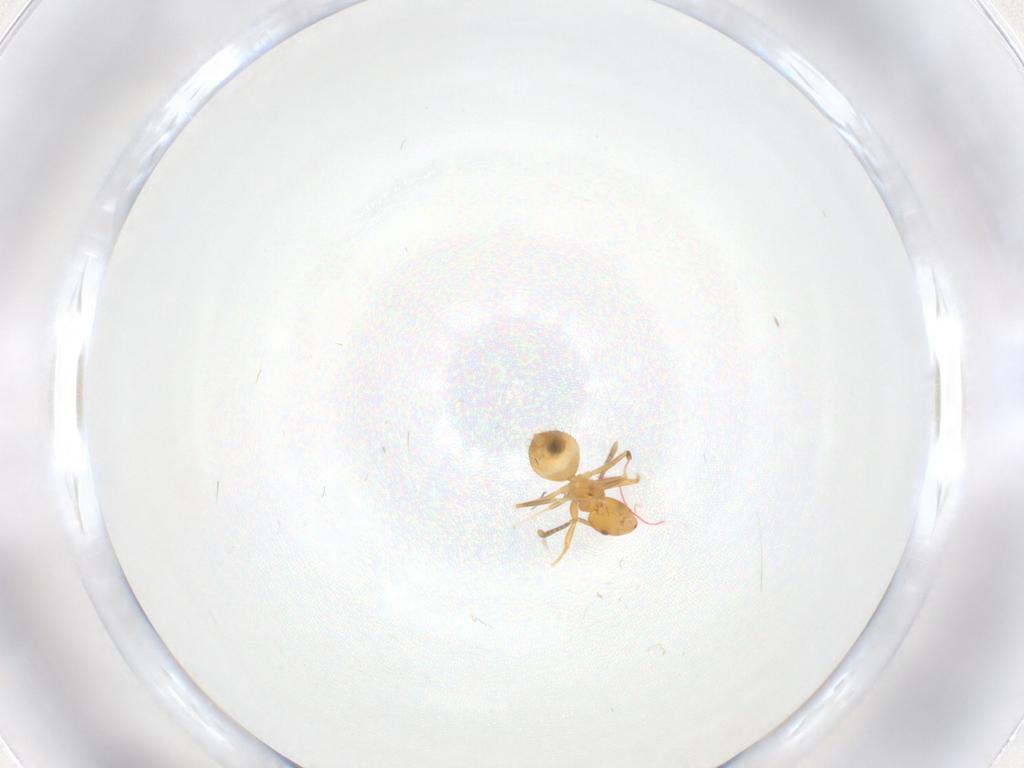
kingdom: Animalia
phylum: Arthropoda
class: Insecta
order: Hymenoptera
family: Formicidae
